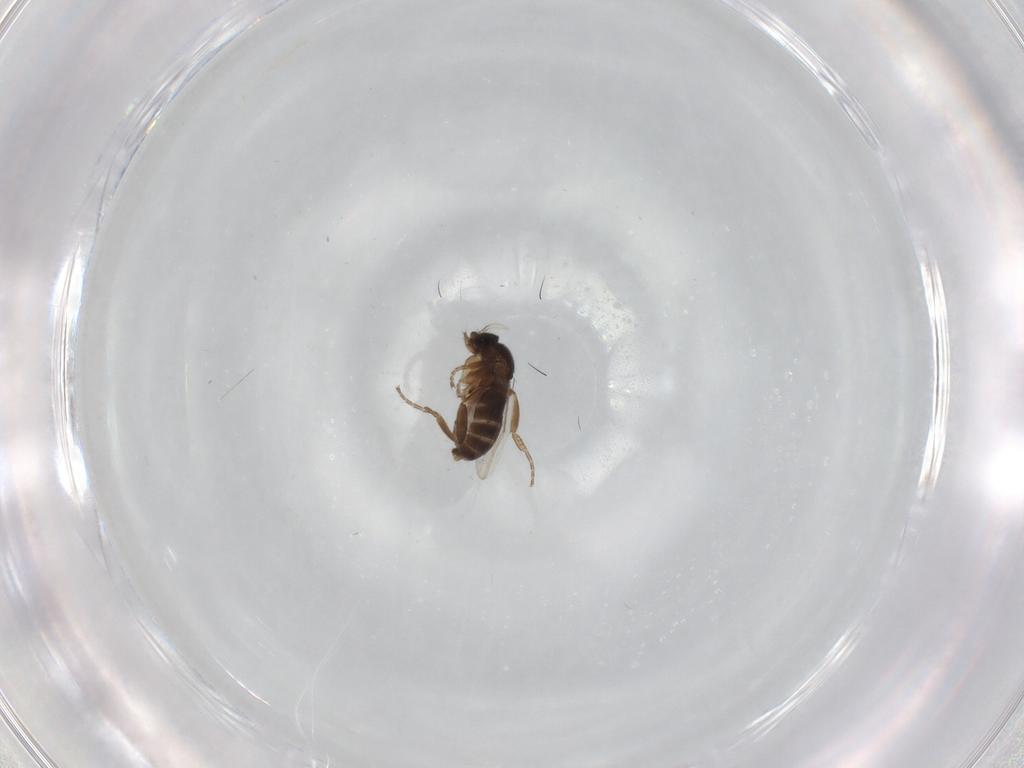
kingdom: Animalia
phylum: Arthropoda
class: Insecta
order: Diptera
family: Phoridae
